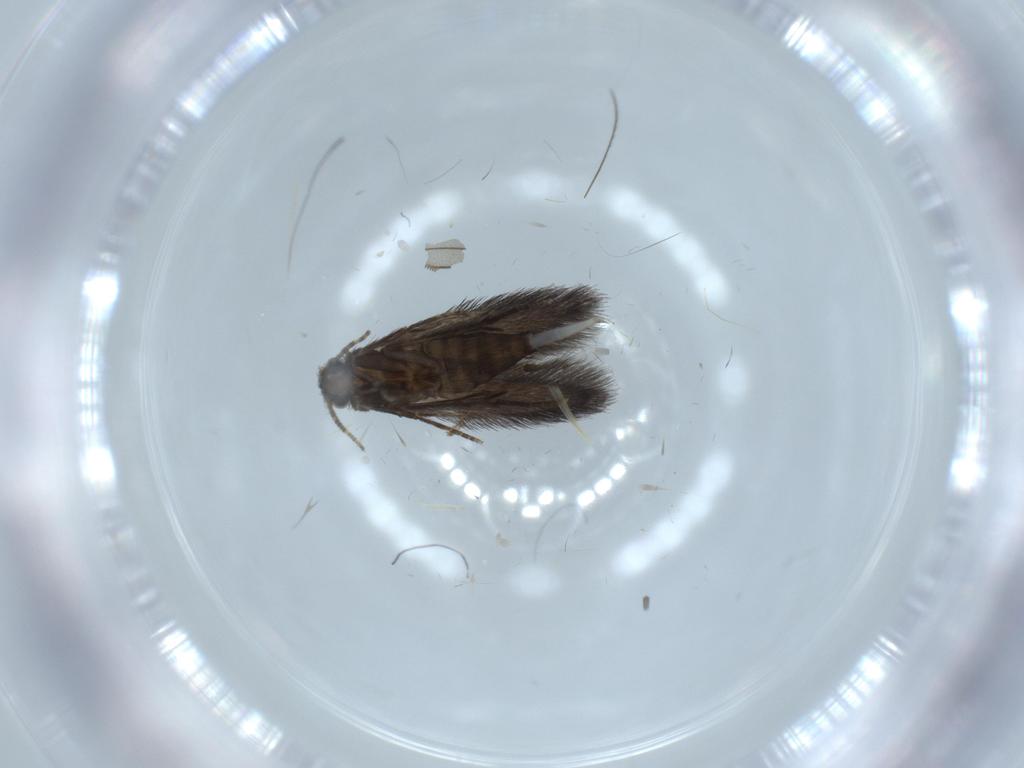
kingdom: Animalia
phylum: Arthropoda
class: Insecta
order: Trichoptera
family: Hydroptilidae
